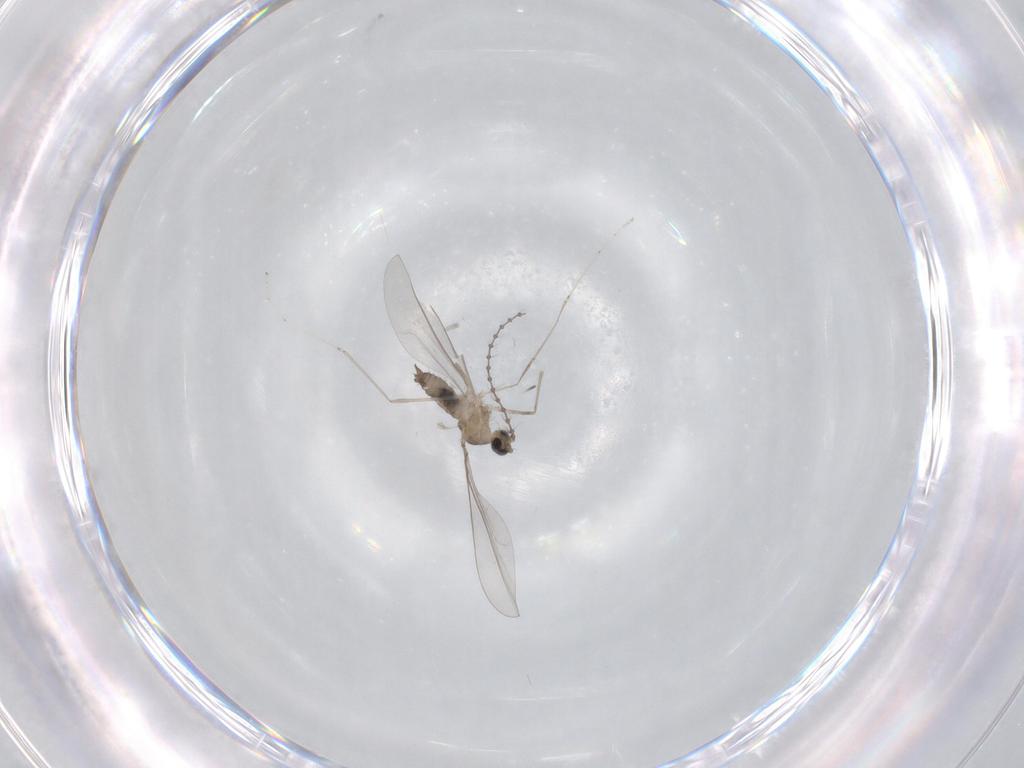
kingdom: Animalia
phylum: Arthropoda
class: Insecta
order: Diptera
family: Cecidomyiidae
